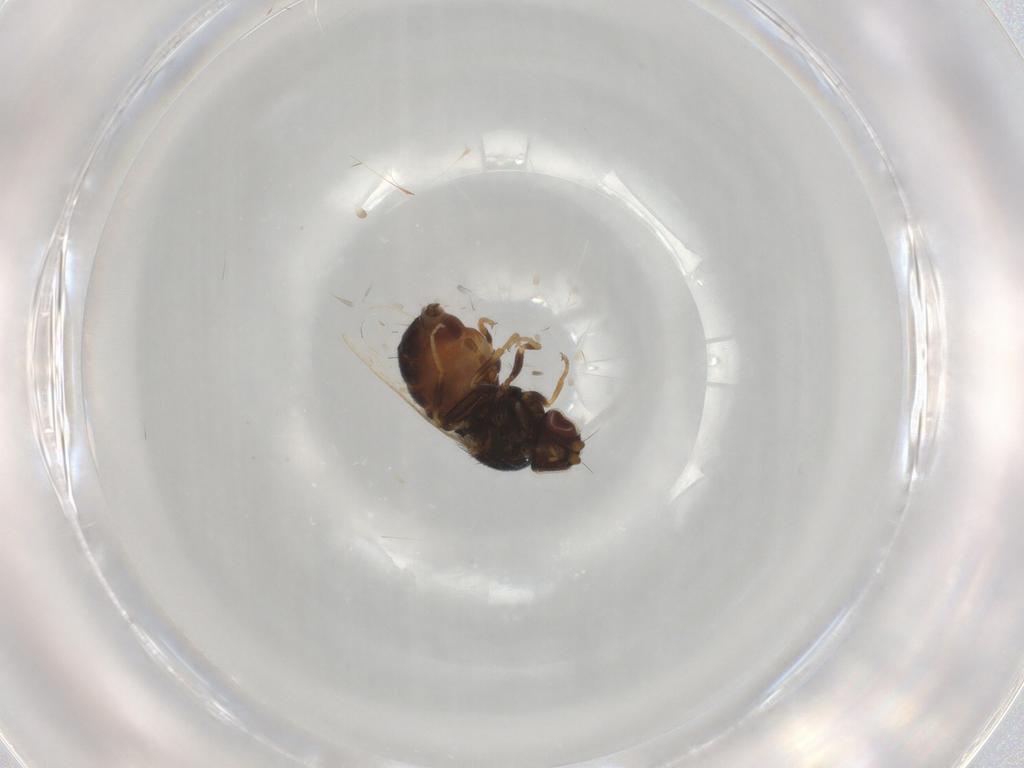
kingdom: Animalia
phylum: Arthropoda
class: Insecta
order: Diptera
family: Chloropidae
